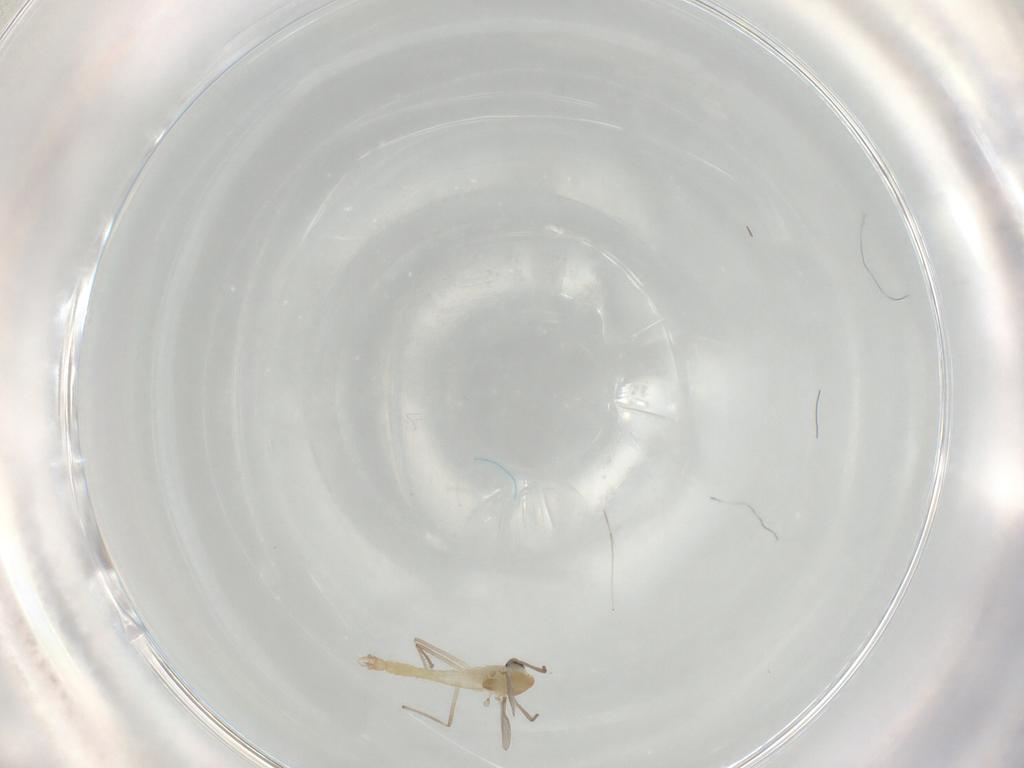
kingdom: Animalia
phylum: Arthropoda
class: Insecta
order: Diptera
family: Chironomidae
